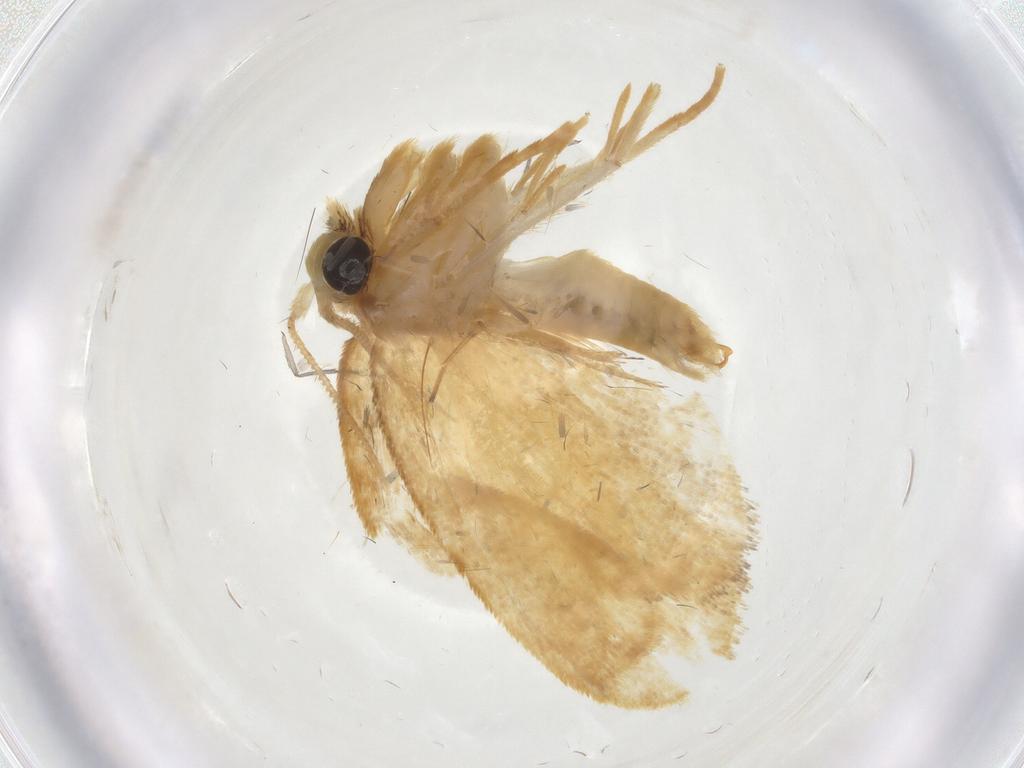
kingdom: Animalia
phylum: Arthropoda
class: Insecta
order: Lepidoptera
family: Psychidae
